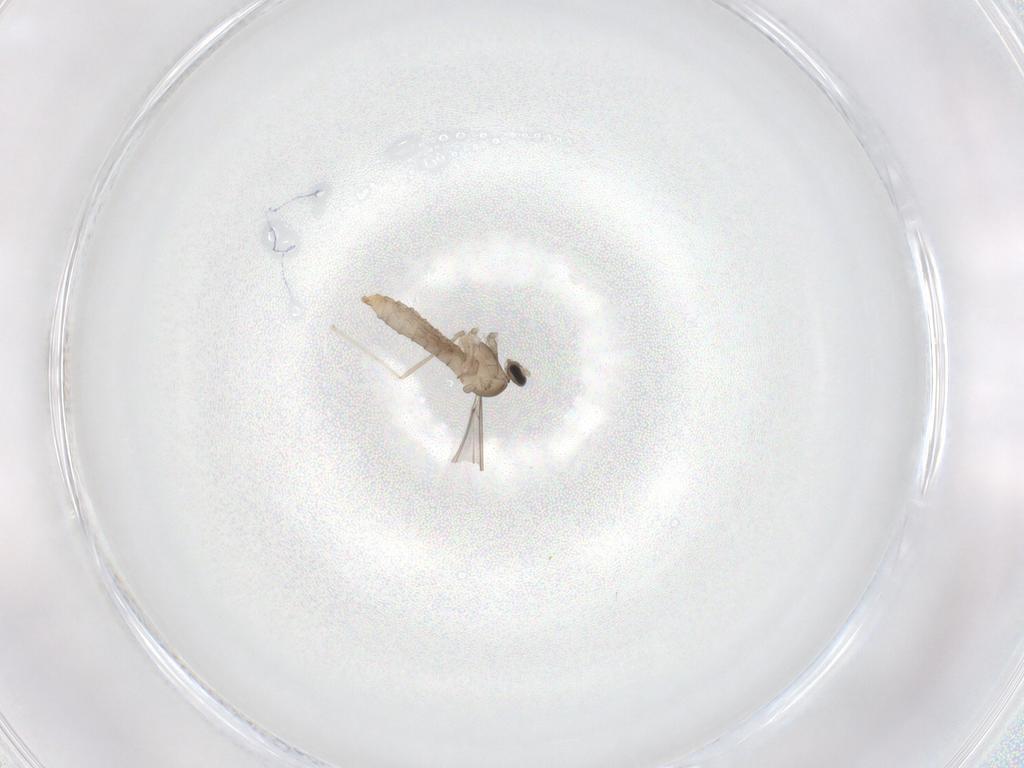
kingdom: Animalia
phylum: Arthropoda
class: Insecta
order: Diptera
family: Cecidomyiidae
